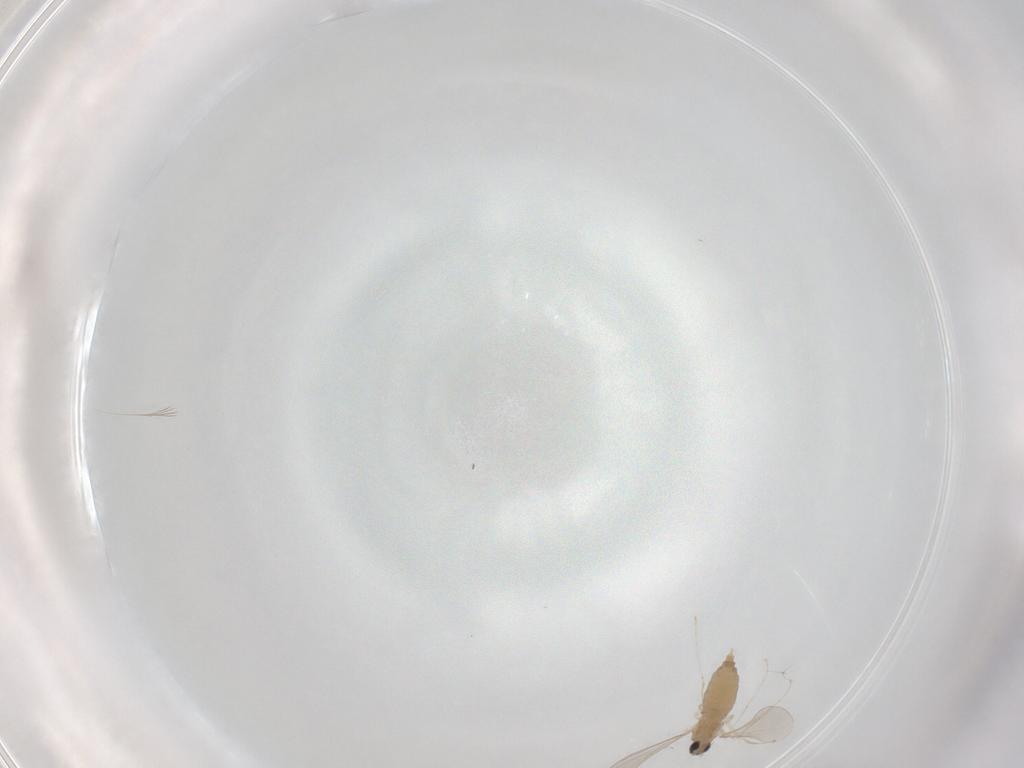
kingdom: Animalia
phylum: Arthropoda
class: Insecta
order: Diptera
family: Cecidomyiidae
